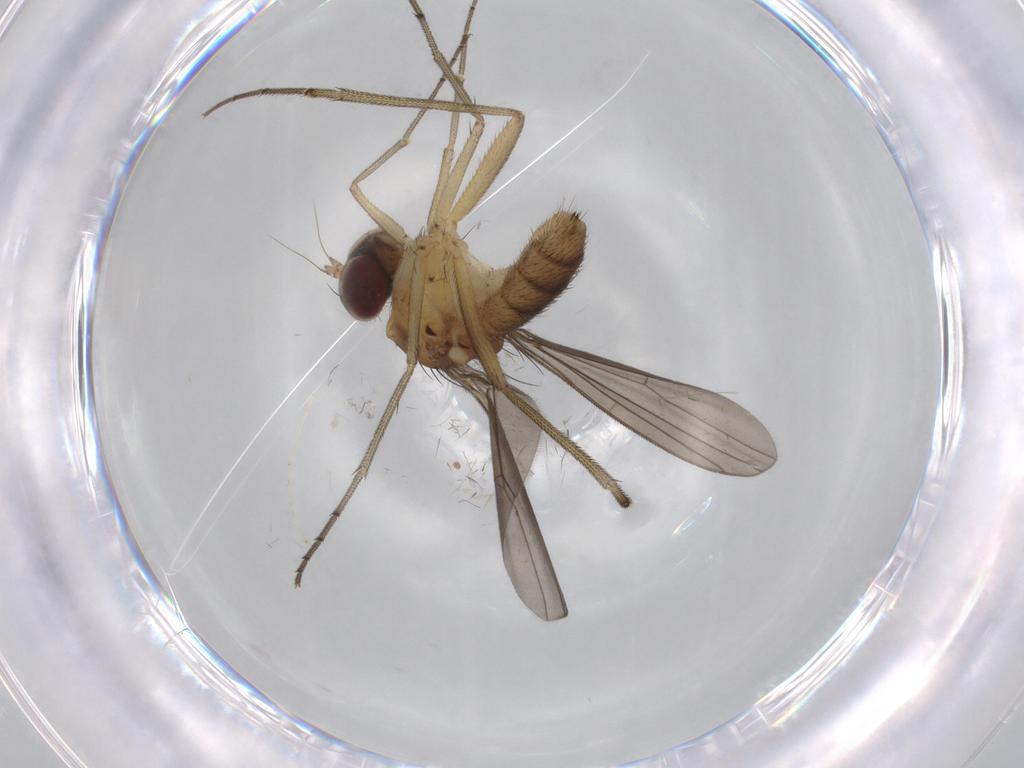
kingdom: Animalia
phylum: Arthropoda
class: Insecta
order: Diptera
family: Dolichopodidae
